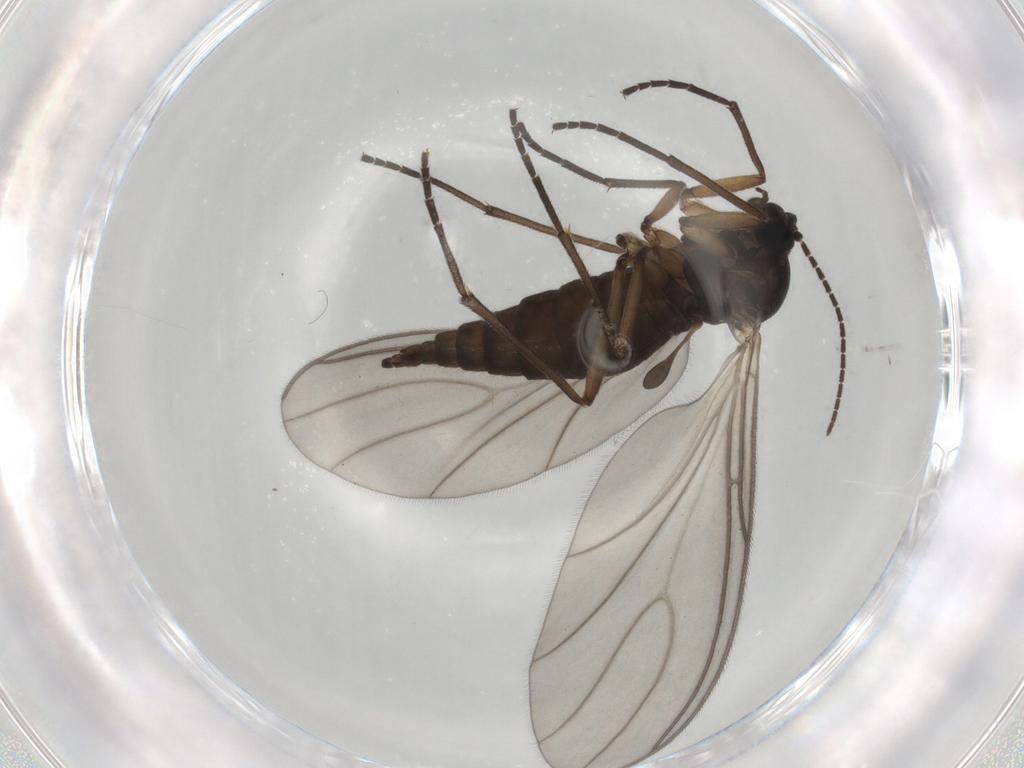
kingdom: Animalia
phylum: Arthropoda
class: Insecta
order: Diptera
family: Sciaridae
